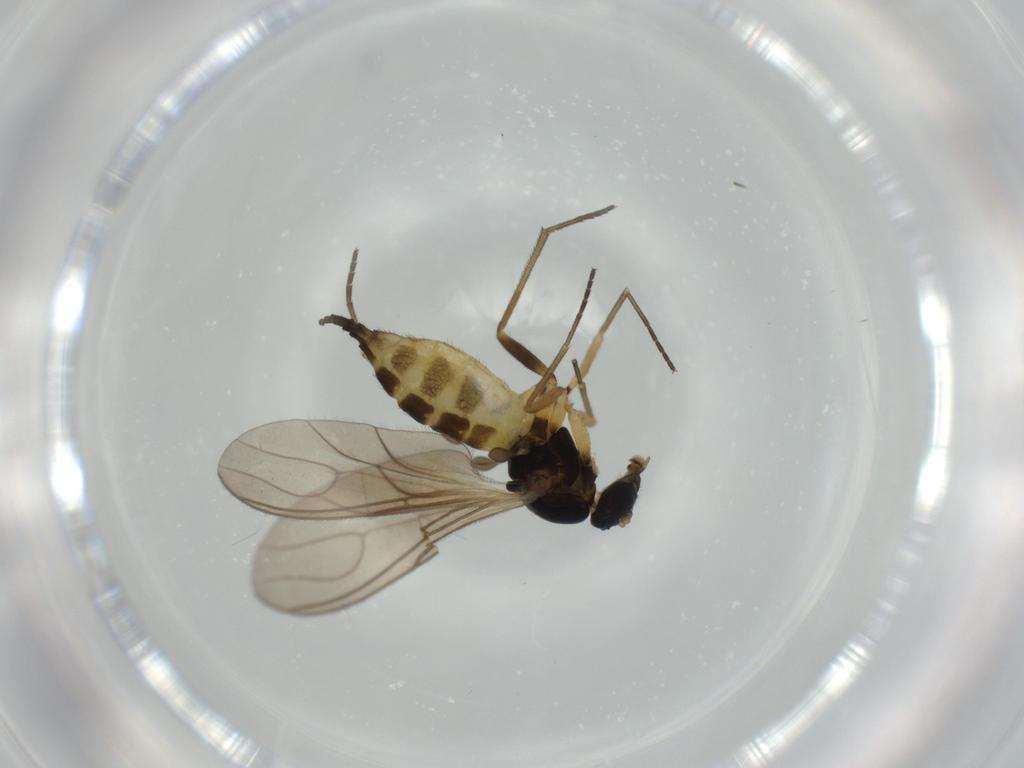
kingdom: Animalia
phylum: Arthropoda
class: Insecta
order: Diptera
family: Sciaridae
